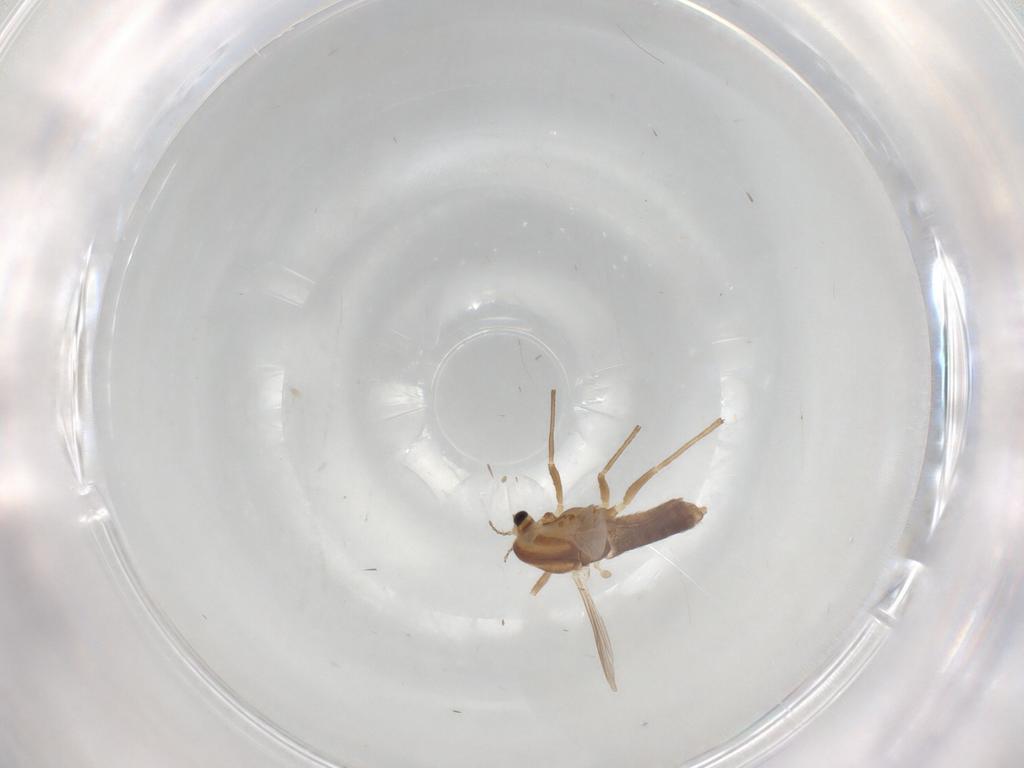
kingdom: Animalia
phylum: Arthropoda
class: Insecta
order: Diptera
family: Chironomidae
